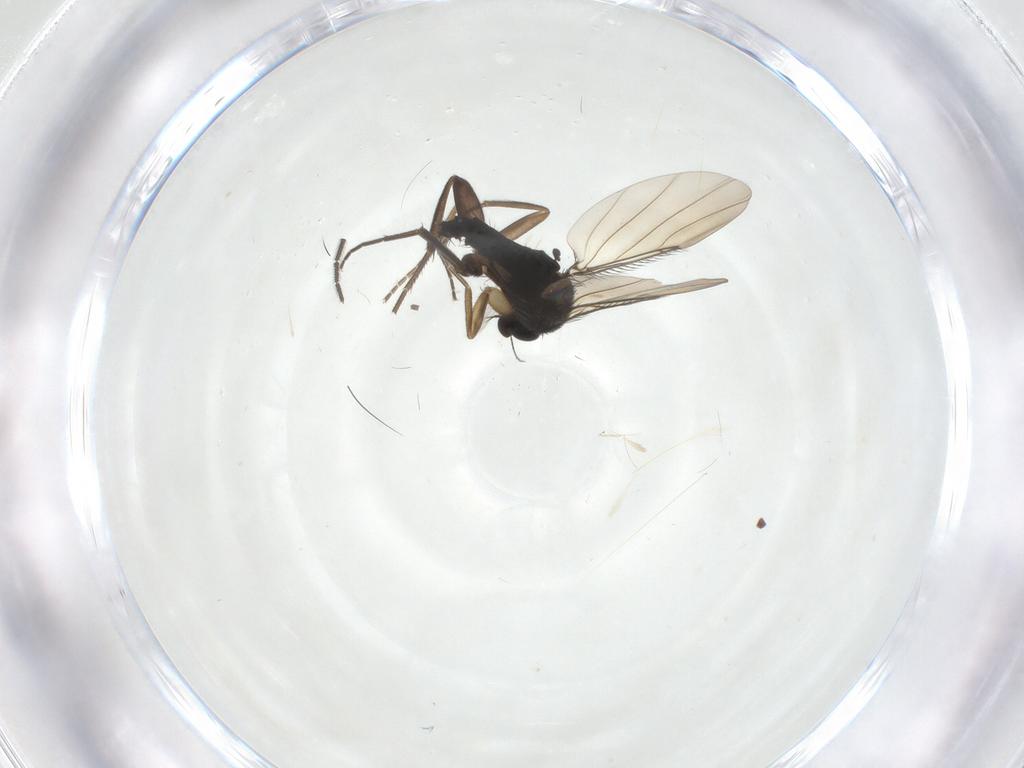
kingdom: Animalia
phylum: Arthropoda
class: Insecta
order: Diptera
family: Phoridae
